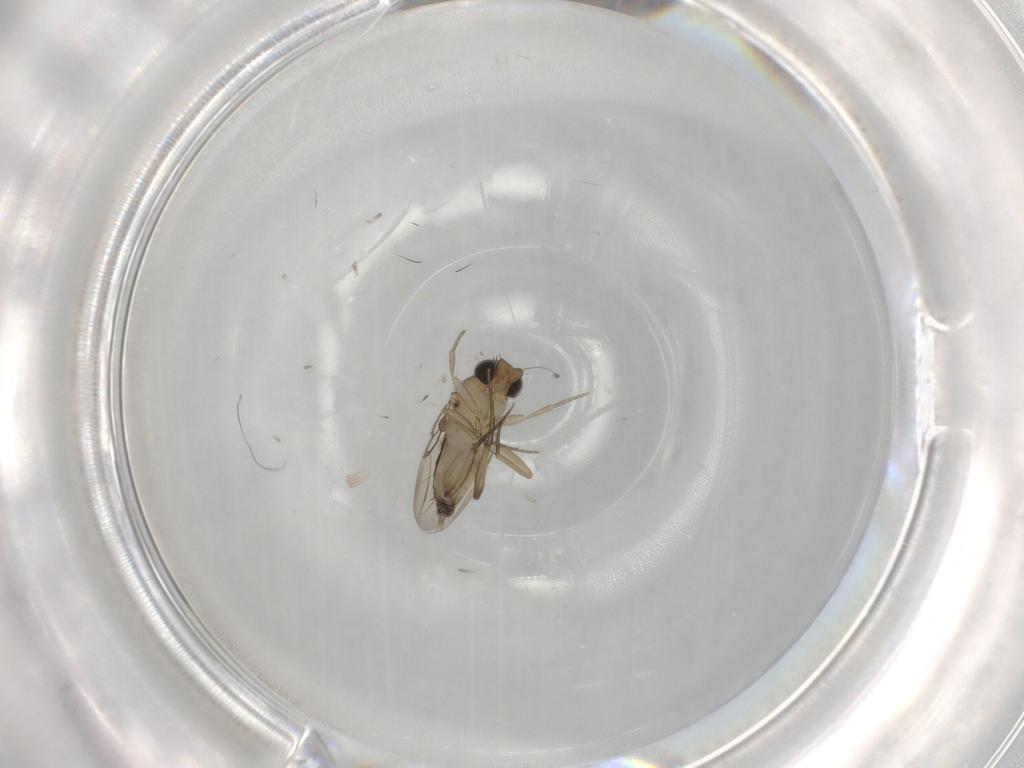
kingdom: Animalia
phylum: Arthropoda
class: Insecta
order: Diptera
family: Phoridae
